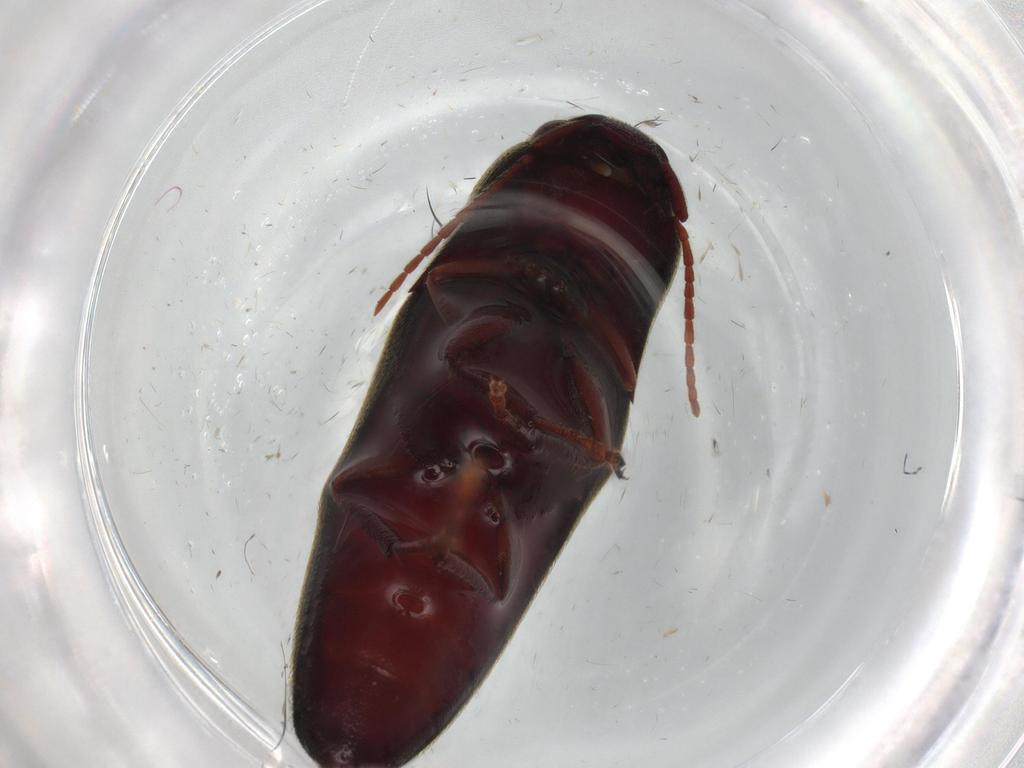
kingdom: Animalia
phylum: Arthropoda
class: Insecta
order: Coleoptera
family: Eucnemidae
